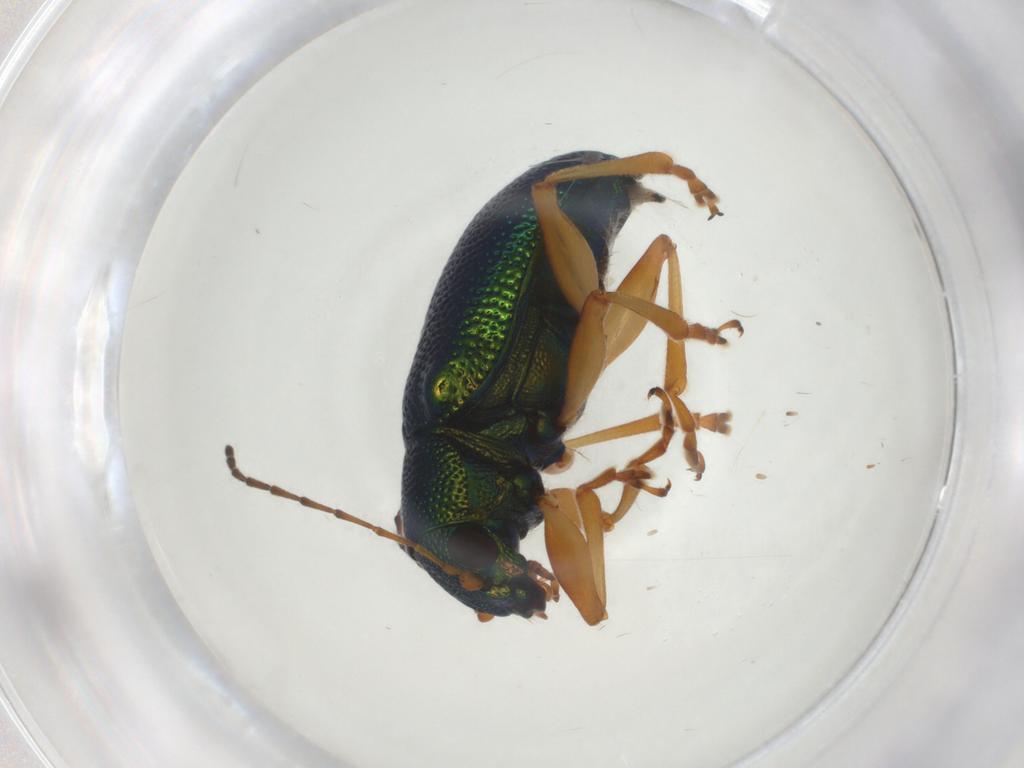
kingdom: Animalia
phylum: Arthropoda
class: Insecta
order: Coleoptera
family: Chrysomelidae
